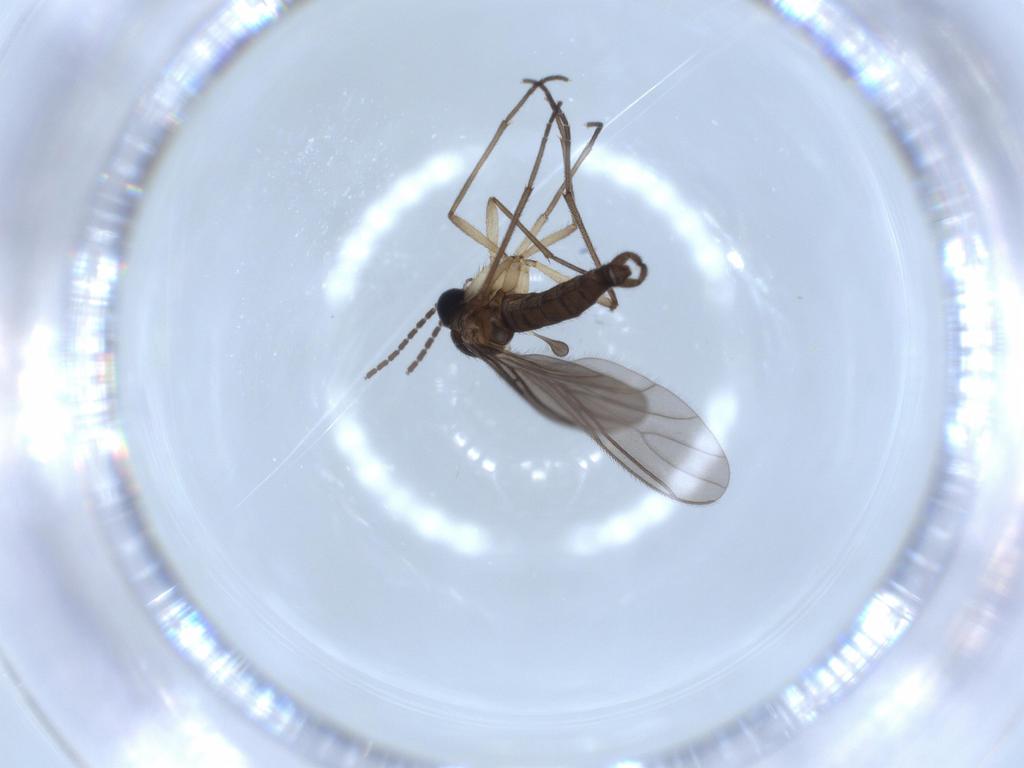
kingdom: Animalia
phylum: Arthropoda
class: Insecta
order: Diptera
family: Sciaridae
